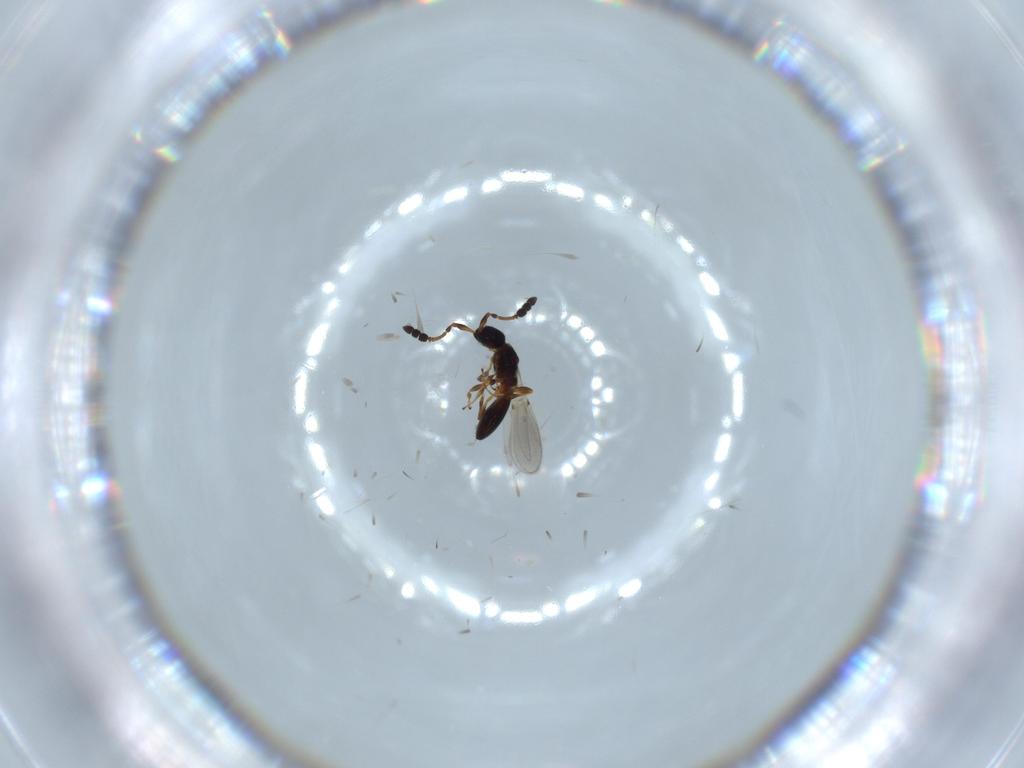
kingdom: Animalia
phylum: Arthropoda
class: Insecta
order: Hymenoptera
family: Diapriidae
